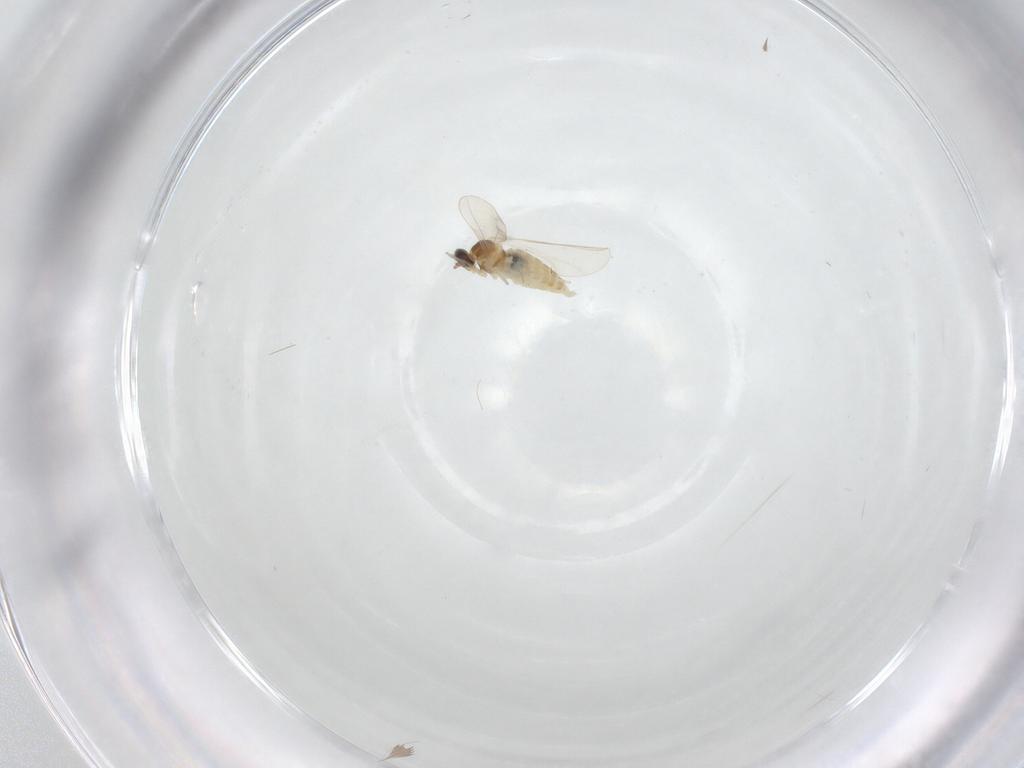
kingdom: Animalia
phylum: Arthropoda
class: Insecta
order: Diptera
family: Cecidomyiidae
